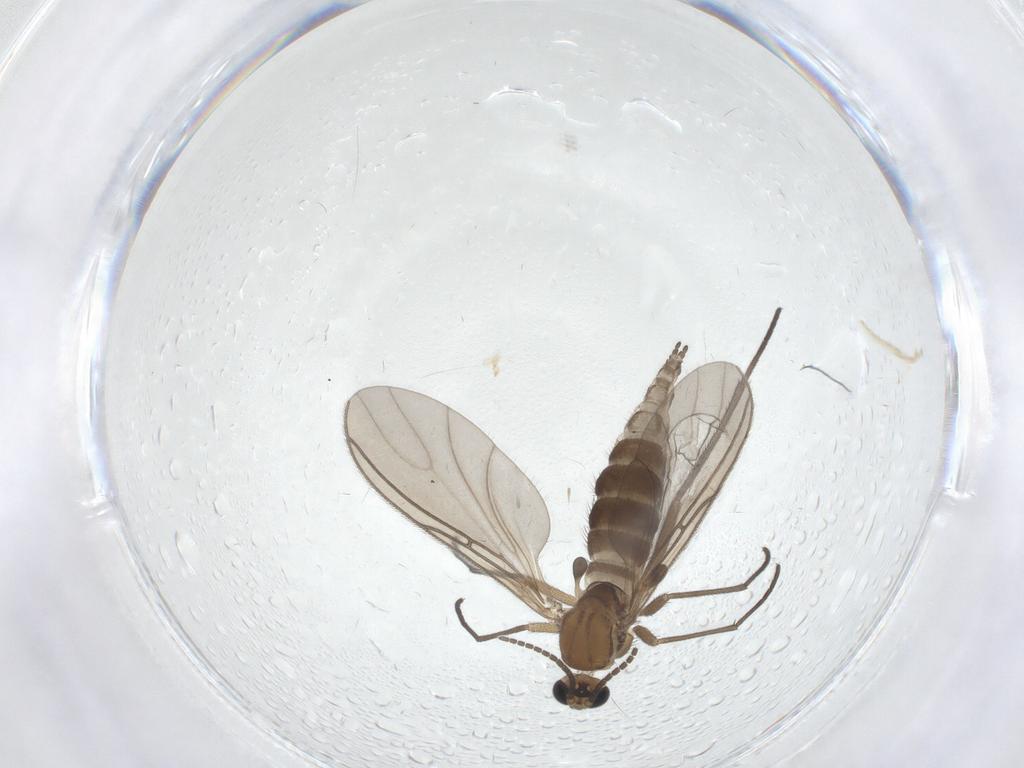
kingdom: Animalia
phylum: Arthropoda
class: Insecta
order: Diptera
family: Sciaridae
